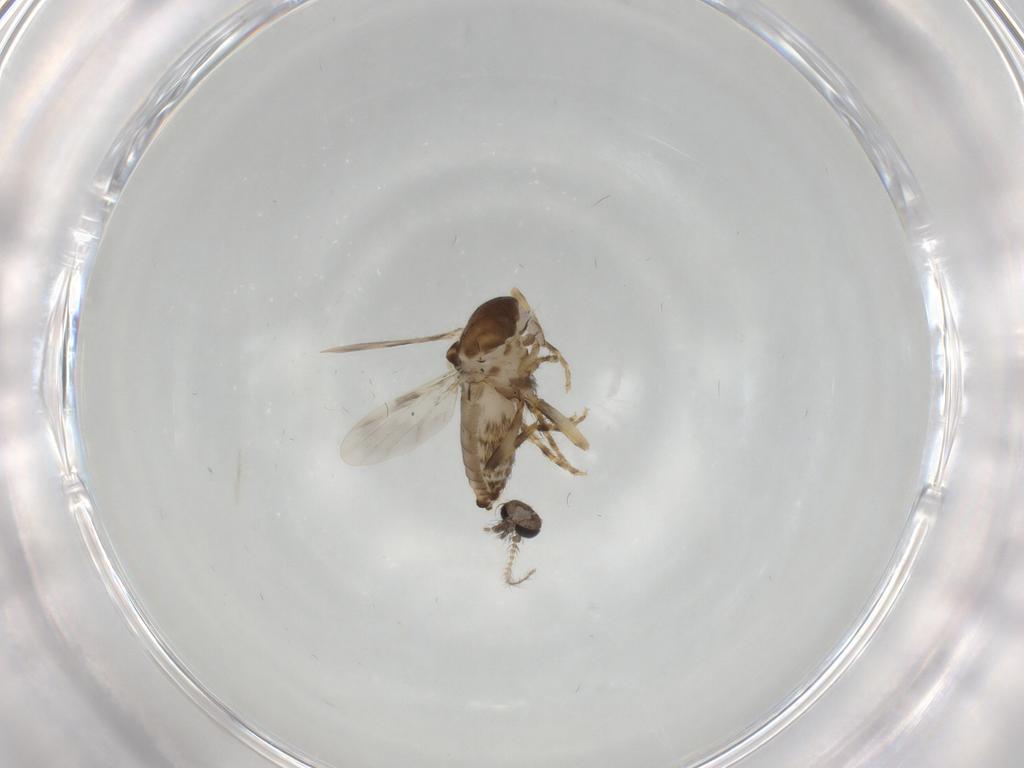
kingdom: Animalia
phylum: Arthropoda
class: Insecta
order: Diptera
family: Ceratopogonidae
